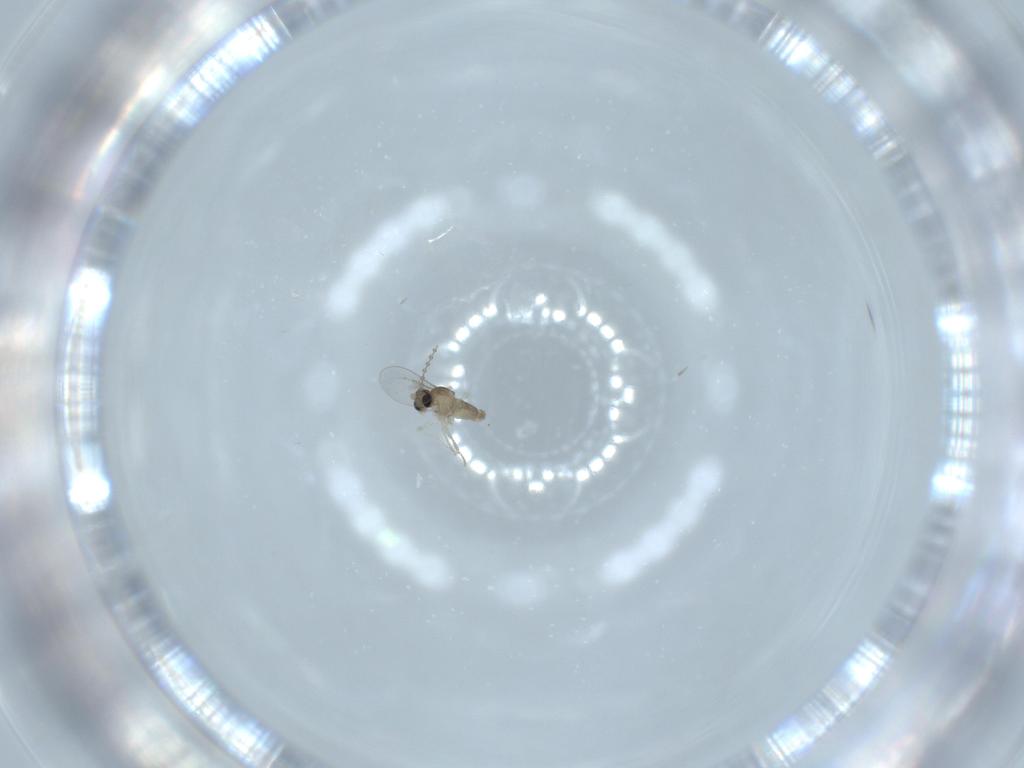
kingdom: Animalia
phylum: Arthropoda
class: Insecta
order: Diptera
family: Cecidomyiidae
